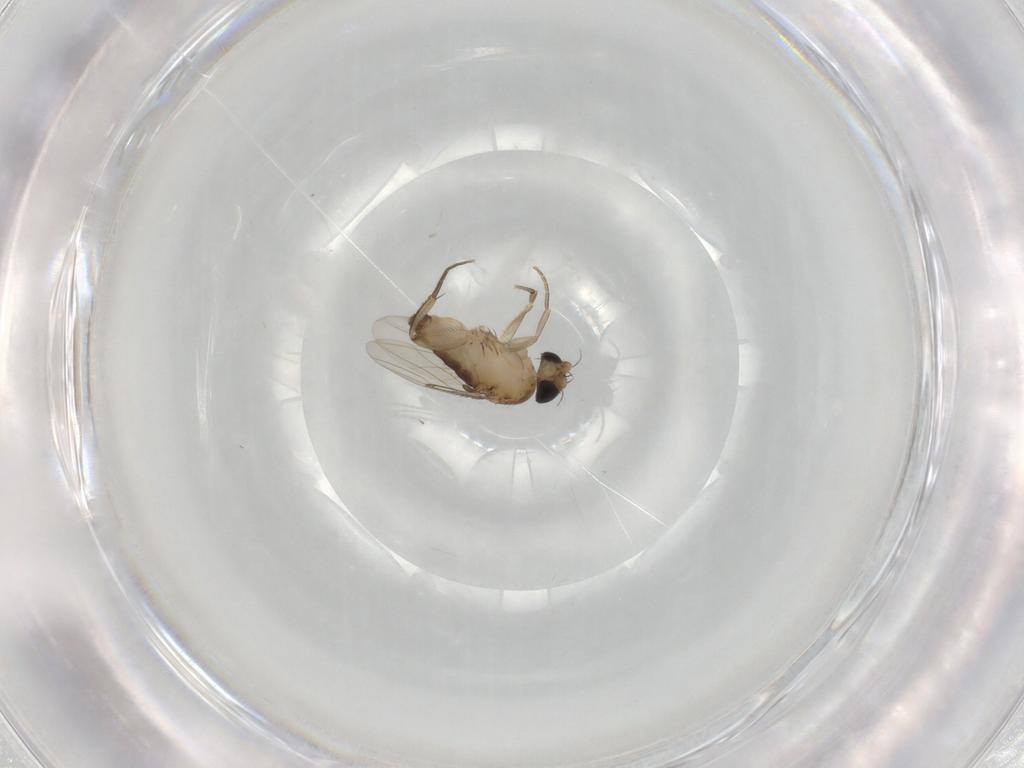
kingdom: Animalia
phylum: Arthropoda
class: Insecta
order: Diptera
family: Phoridae
